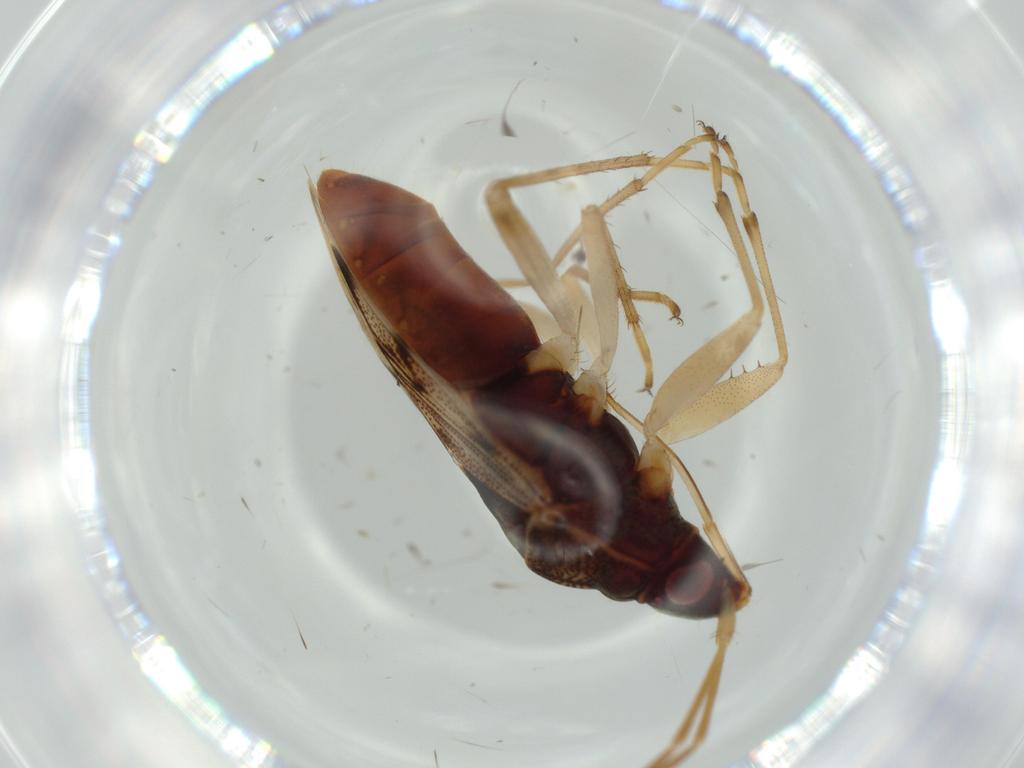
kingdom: Animalia
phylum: Arthropoda
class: Insecta
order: Hemiptera
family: Rhyparochromidae
